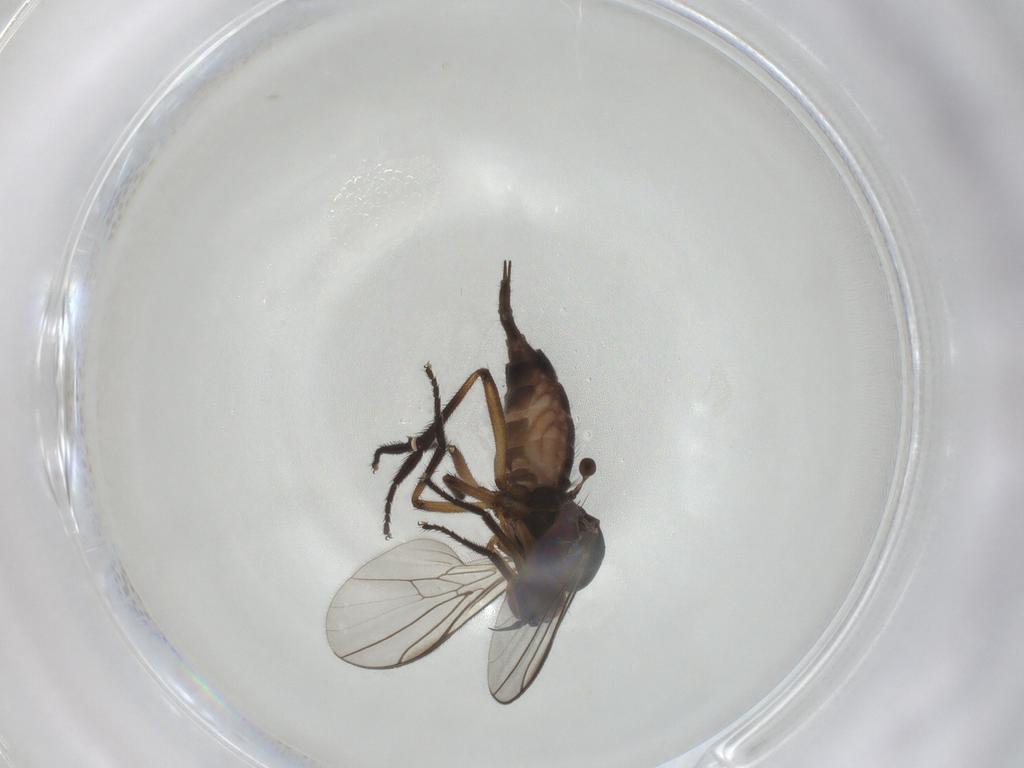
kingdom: Animalia
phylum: Arthropoda
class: Insecta
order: Diptera
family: Empididae
